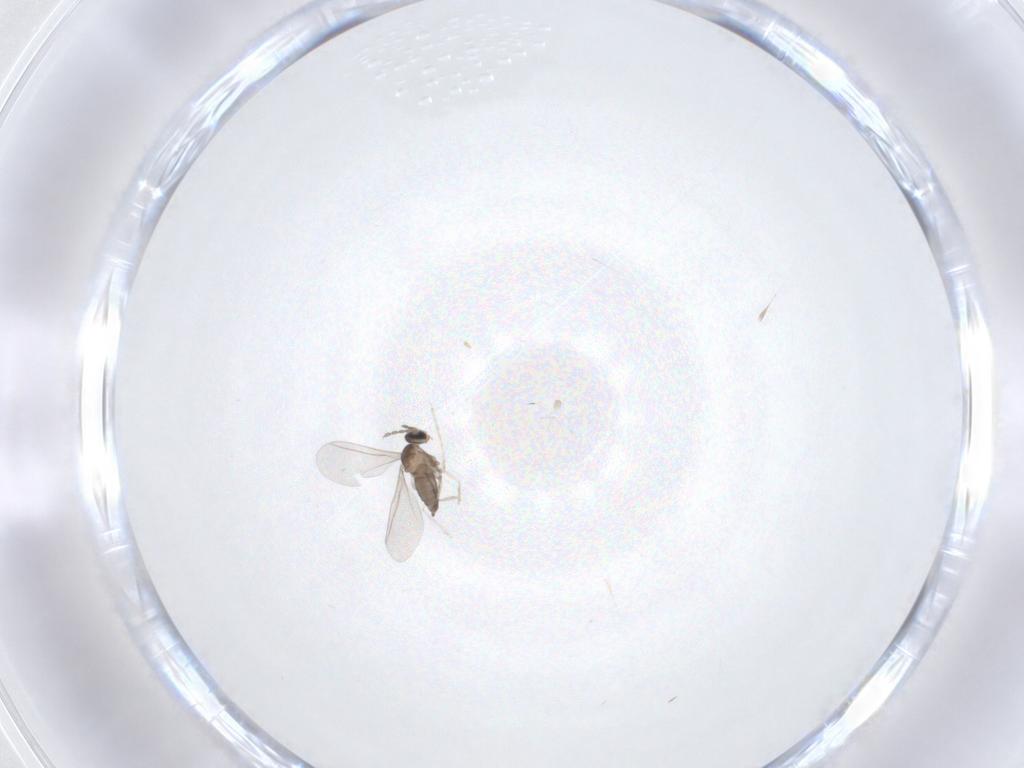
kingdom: Animalia
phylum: Arthropoda
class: Insecta
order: Diptera
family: Cecidomyiidae
